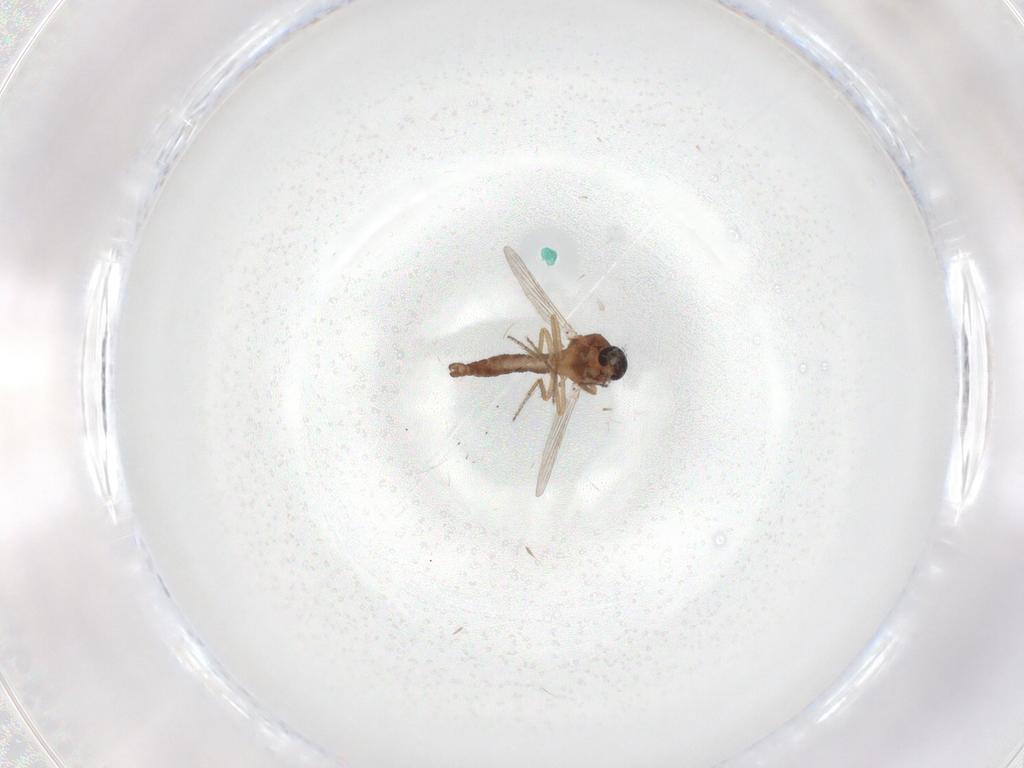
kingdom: Animalia
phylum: Arthropoda
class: Insecta
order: Diptera
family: Ceratopogonidae
